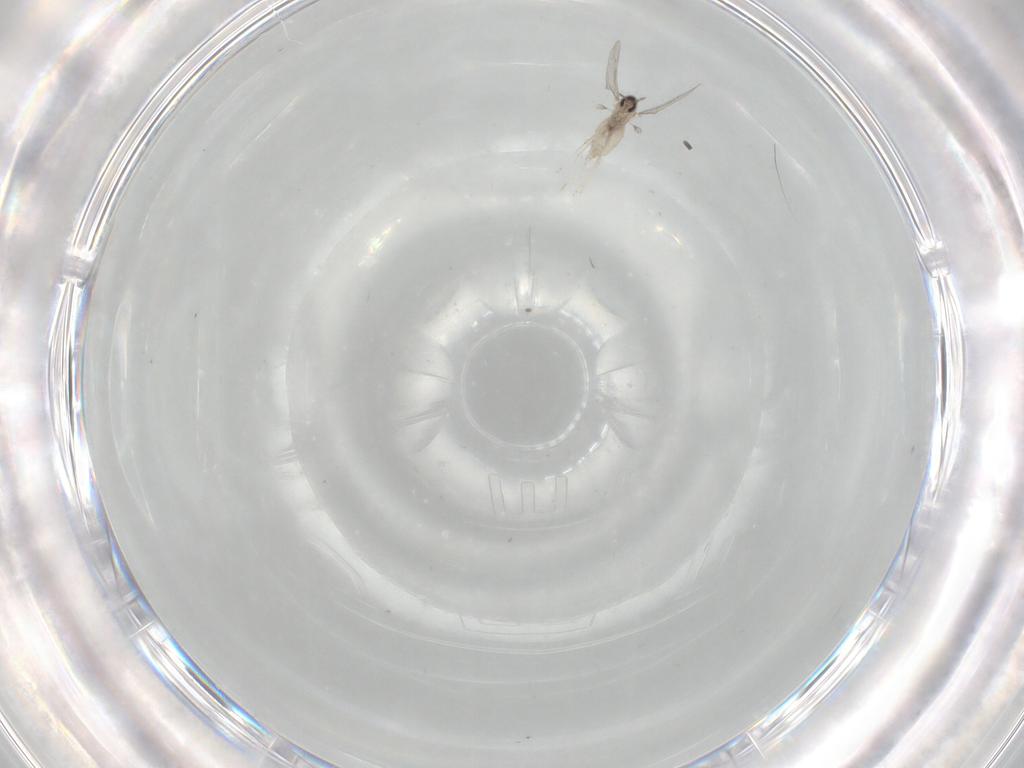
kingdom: Animalia
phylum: Arthropoda
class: Insecta
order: Diptera
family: Cecidomyiidae
